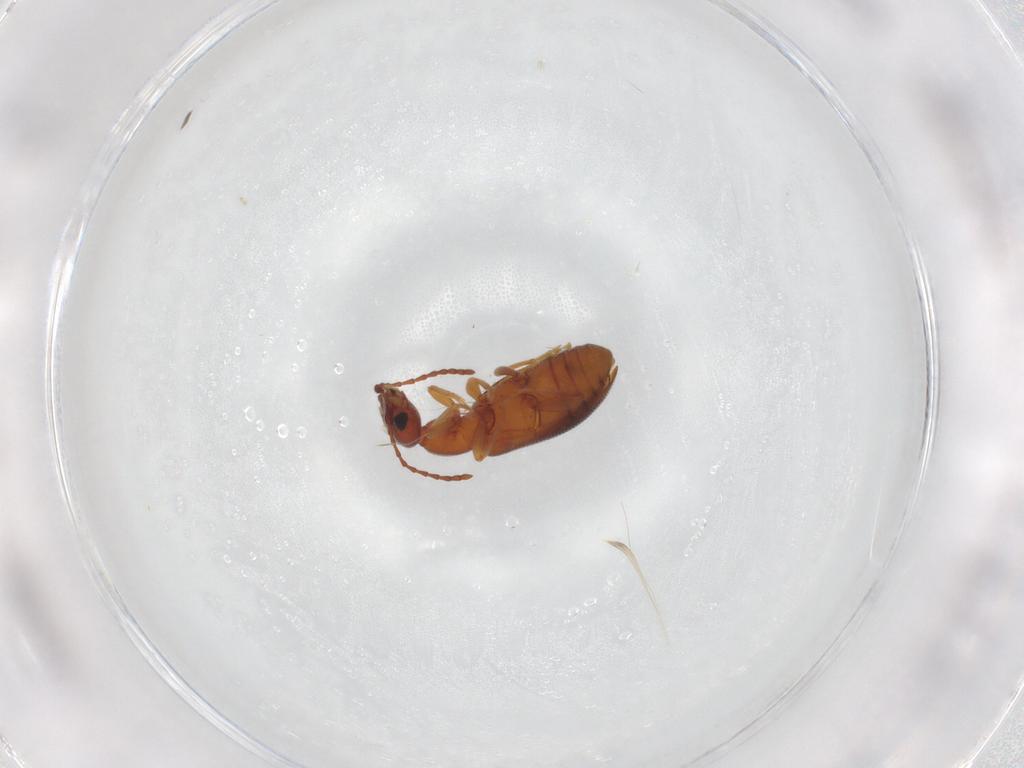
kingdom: Animalia
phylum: Arthropoda
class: Insecta
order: Coleoptera
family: Anthicidae
